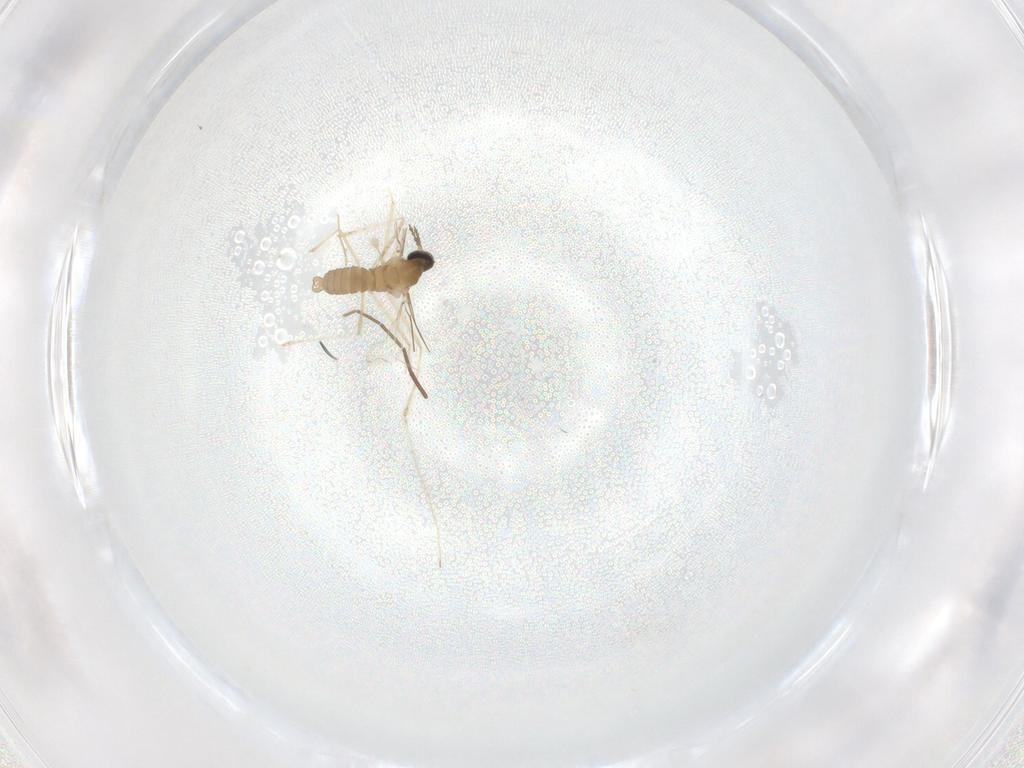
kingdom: Animalia
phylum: Arthropoda
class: Insecta
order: Diptera
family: Cecidomyiidae
